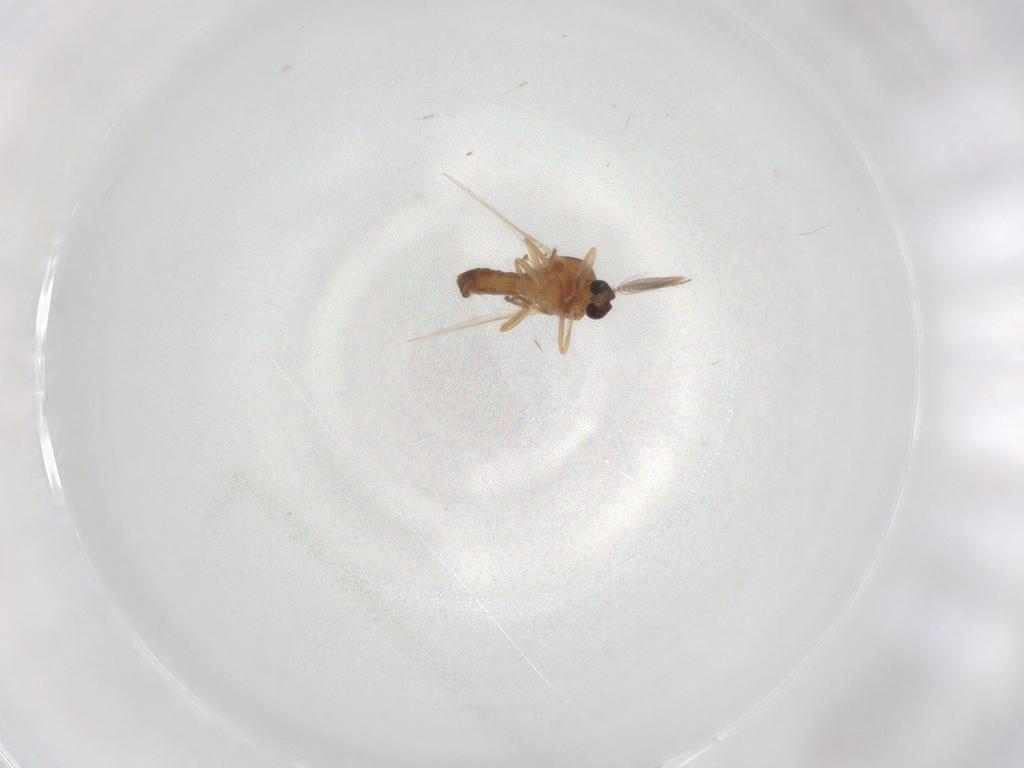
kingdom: Animalia
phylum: Arthropoda
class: Insecta
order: Diptera
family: Ceratopogonidae
